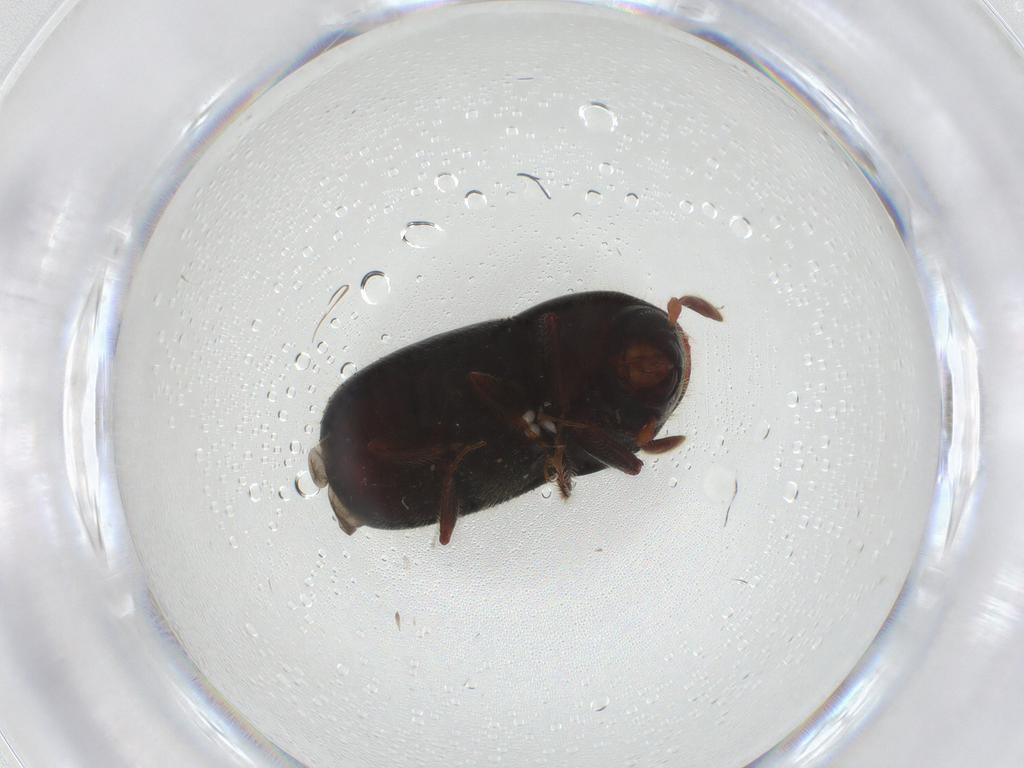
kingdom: Animalia
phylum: Arthropoda
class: Insecta
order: Coleoptera
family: Curculionidae
